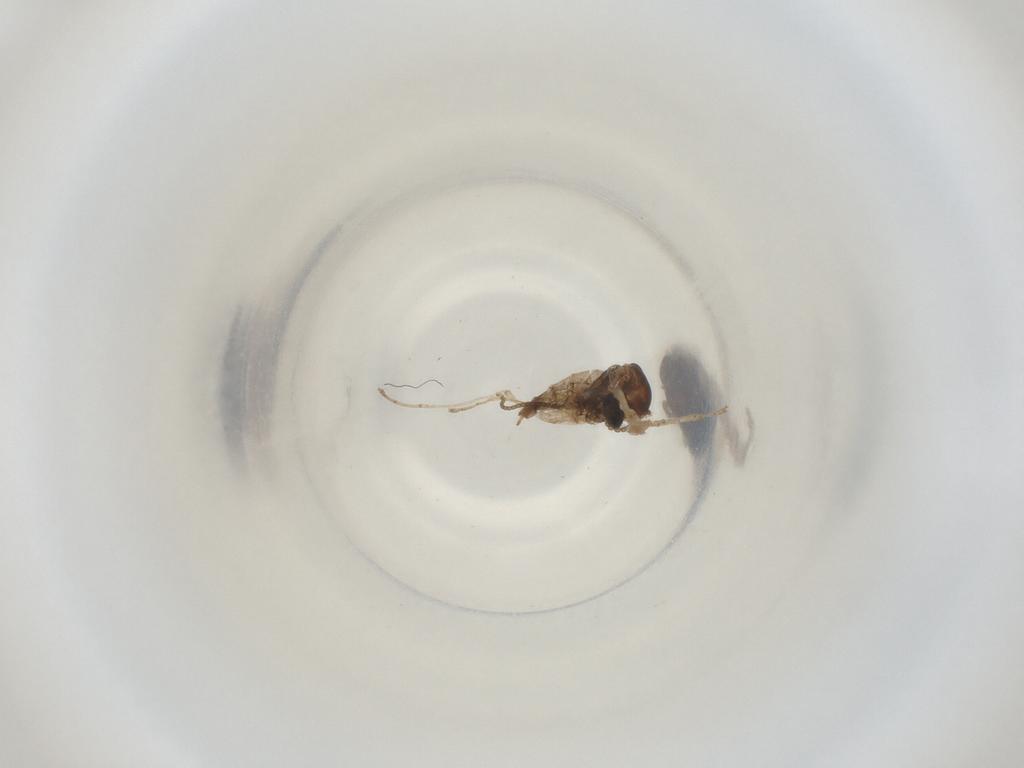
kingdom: Animalia
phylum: Arthropoda
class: Insecta
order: Diptera
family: Cecidomyiidae
